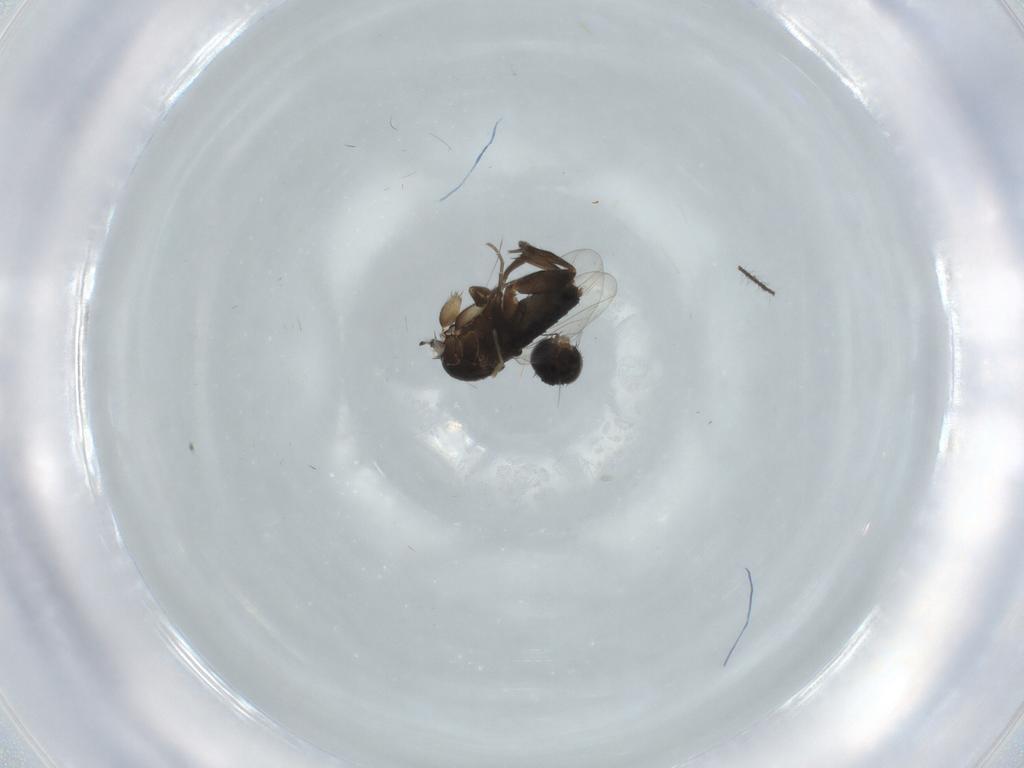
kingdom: Animalia
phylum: Arthropoda
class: Insecta
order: Diptera
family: Phoridae
